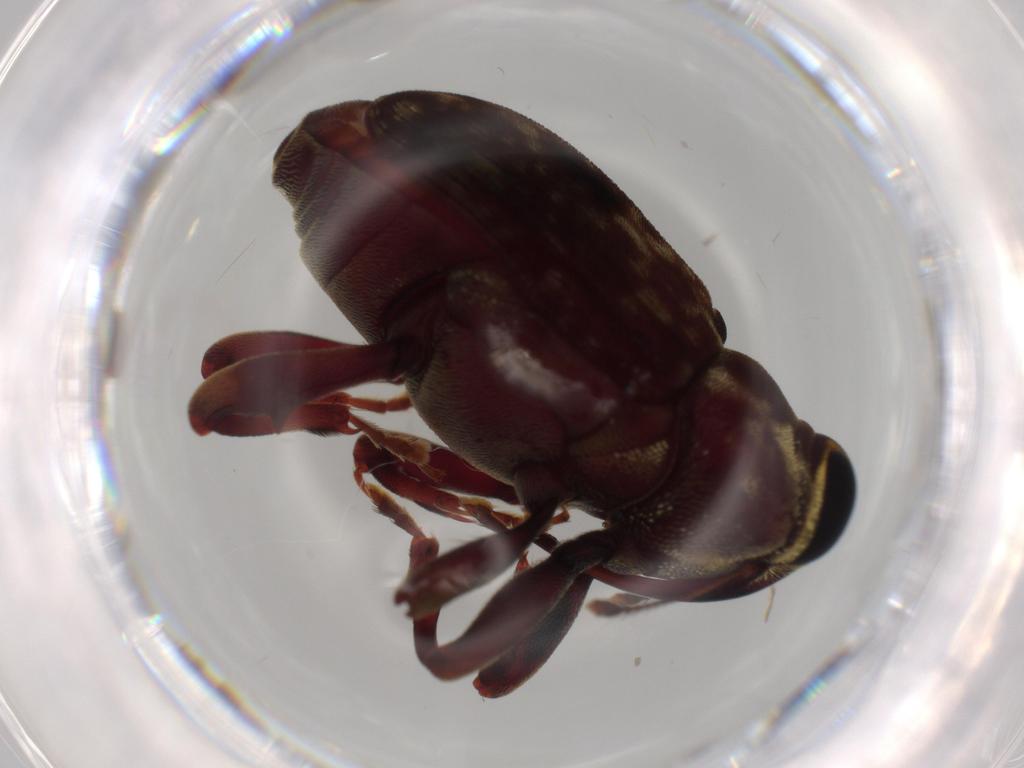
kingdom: Animalia
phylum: Arthropoda
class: Insecta
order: Coleoptera
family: Curculionidae
